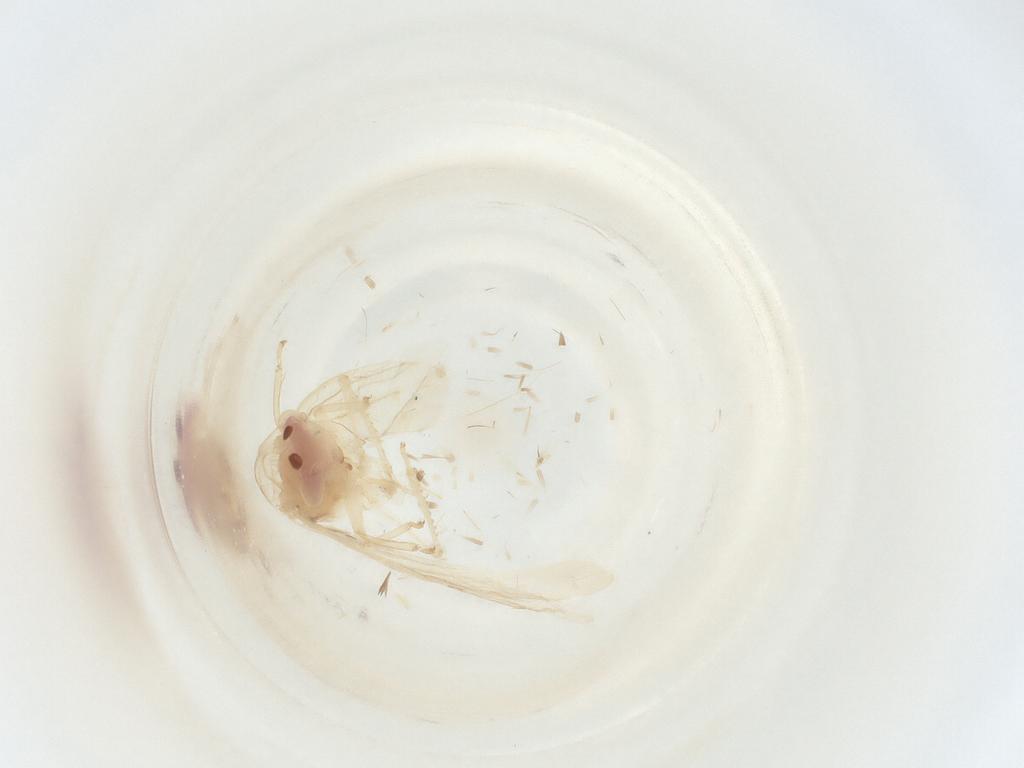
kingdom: Animalia
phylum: Arthropoda
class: Insecta
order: Hemiptera
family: Cicadellidae
